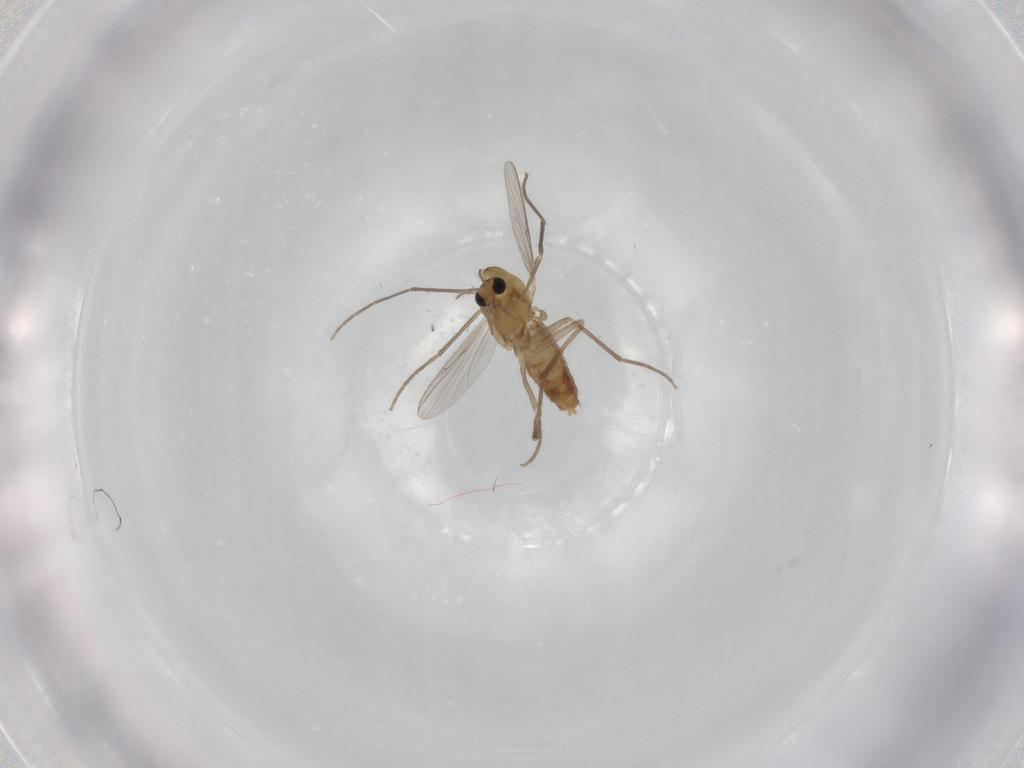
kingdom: Animalia
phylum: Arthropoda
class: Insecta
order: Diptera
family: Chironomidae
